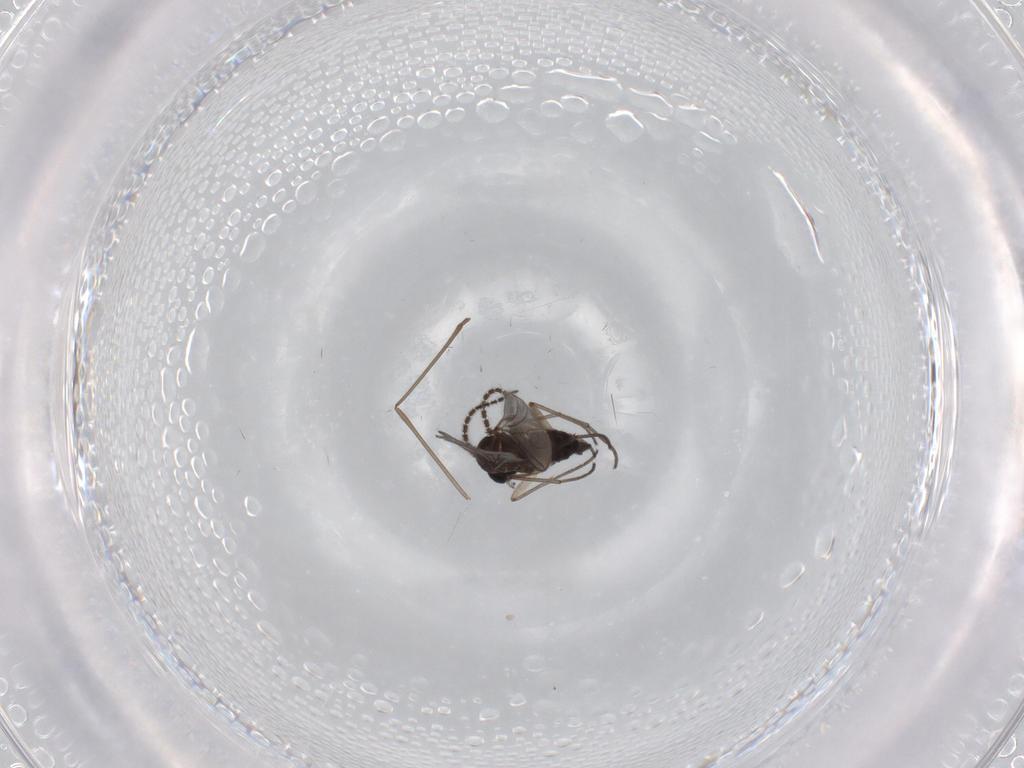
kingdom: Animalia
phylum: Arthropoda
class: Insecta
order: Diptera
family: Sciaridae
